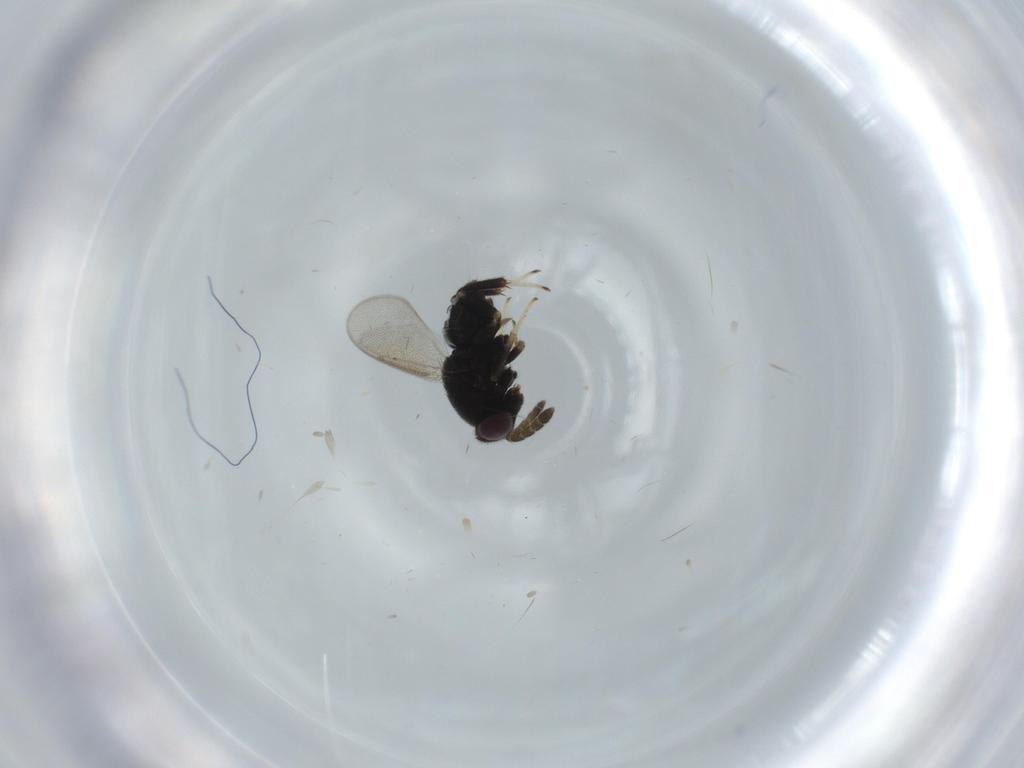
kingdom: Animalia
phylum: Arthropoda
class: Insecta
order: Hymenoptera
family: Aphelinidae
